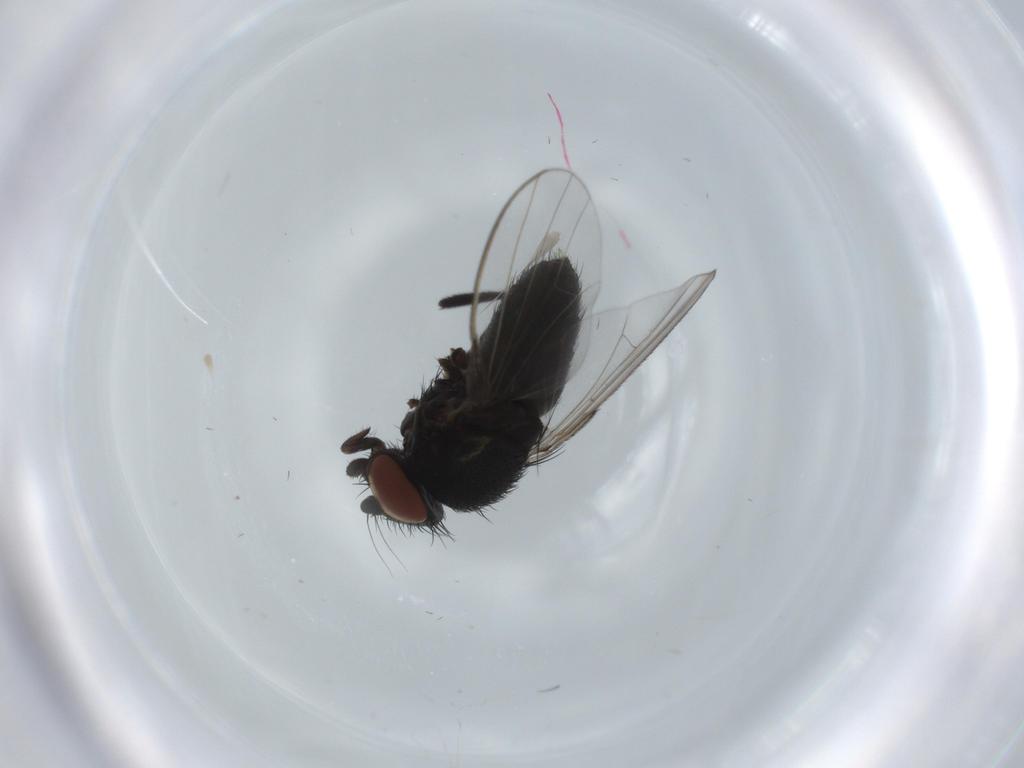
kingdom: Animalia
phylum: Arthropoda
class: Insecta
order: Diptera
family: Milichiidae
